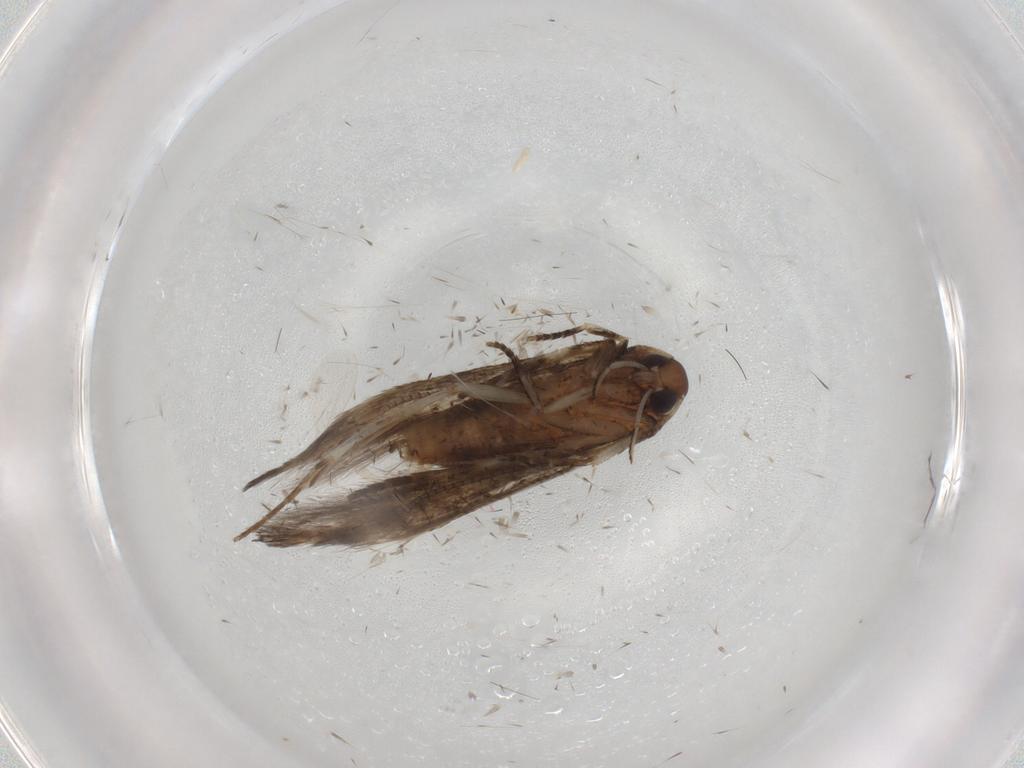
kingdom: Animalia
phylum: Arthropoda
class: Insecta
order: Lepidoptera
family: Cosmopterigidae
